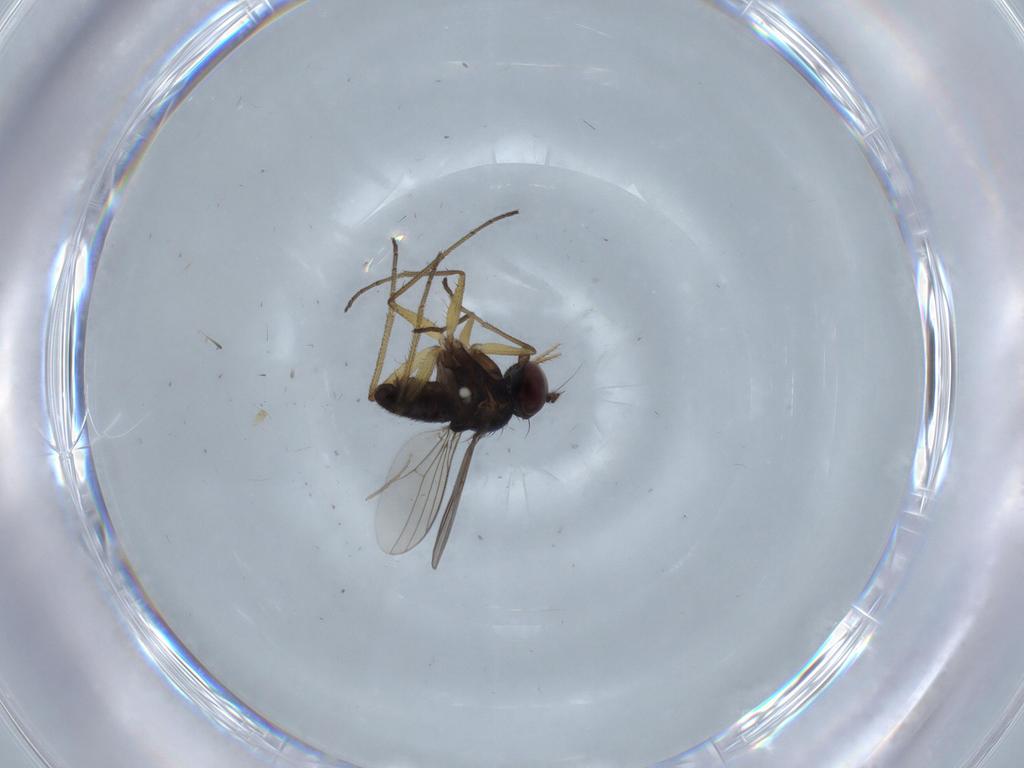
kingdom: Animalia
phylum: Arthropoda
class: Insecta
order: Diptera
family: Dolichopodidae
